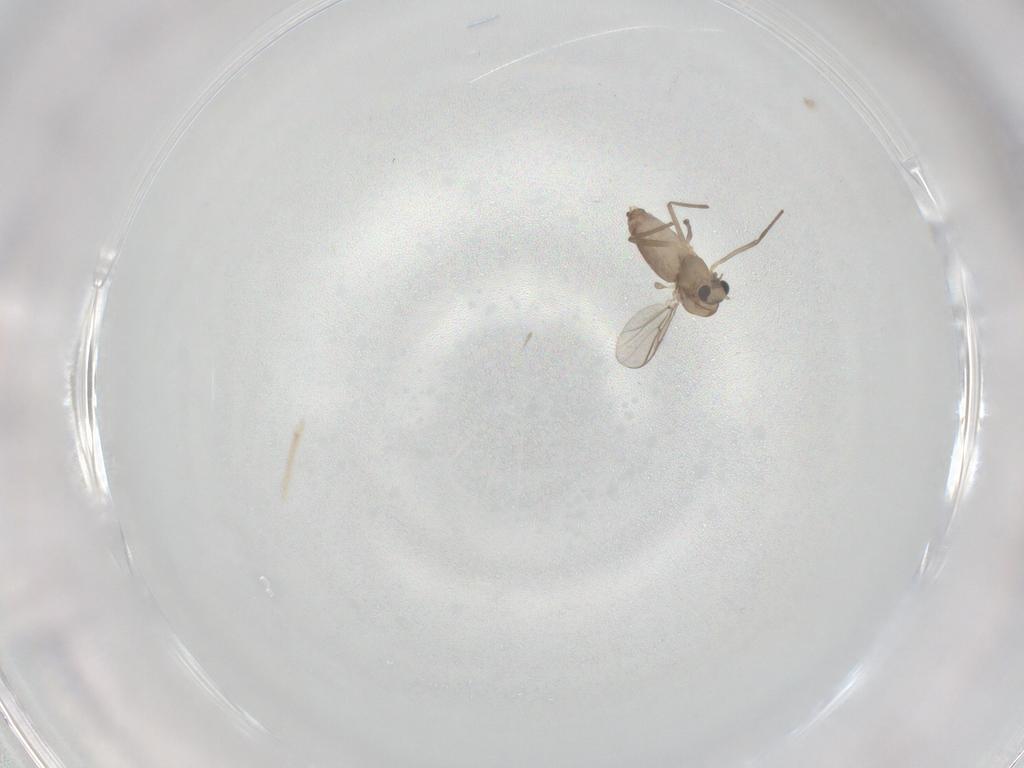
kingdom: Animalia
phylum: Arthropoda
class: Insecta
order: Diptera
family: Chironomidae
